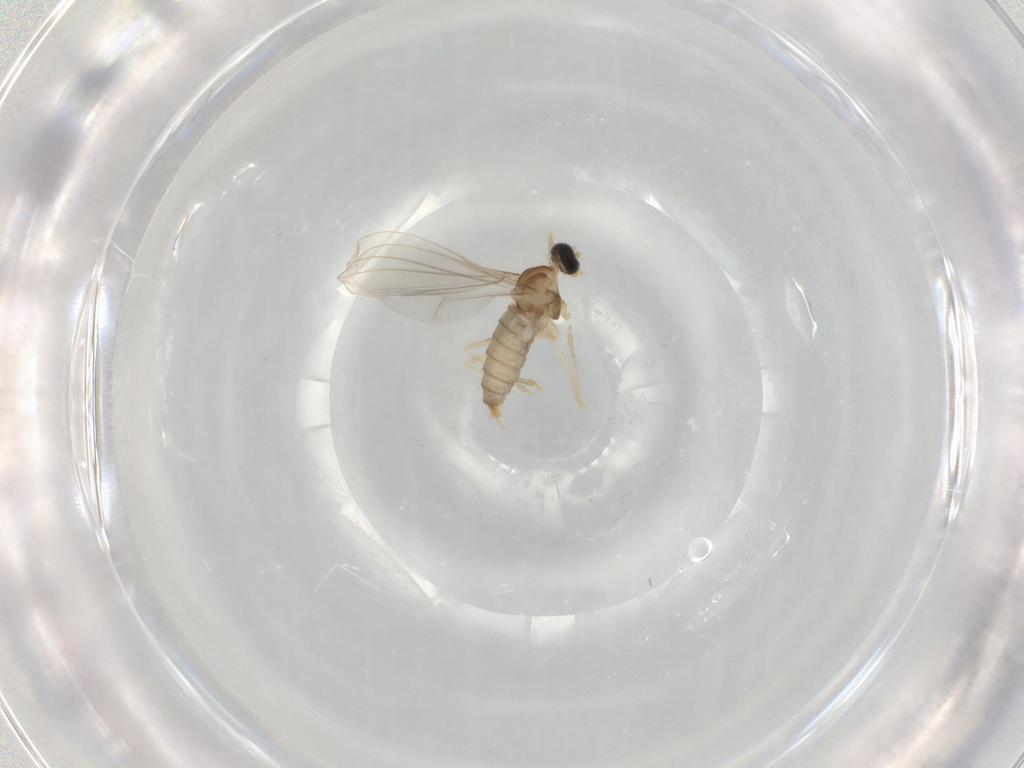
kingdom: Animalia
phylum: Arthropoda
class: Insecta
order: Diptera
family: Cecidomyiidae
